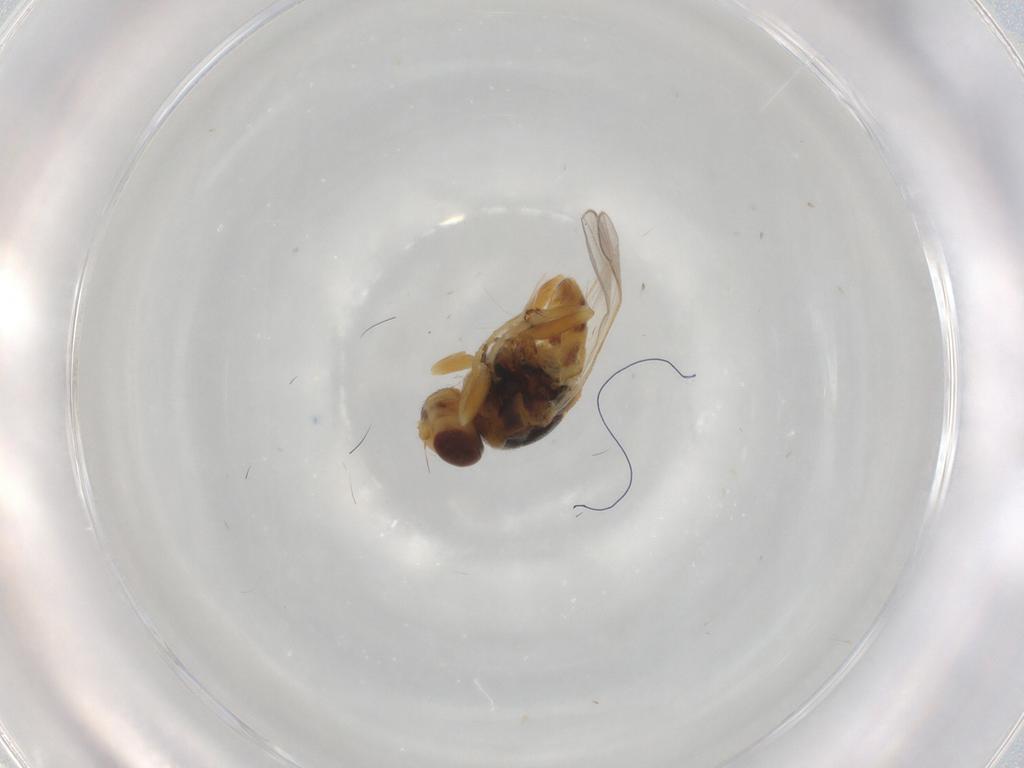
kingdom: Animalia
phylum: Arthropoda
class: Insecta
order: Diptera
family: Chloropidae
